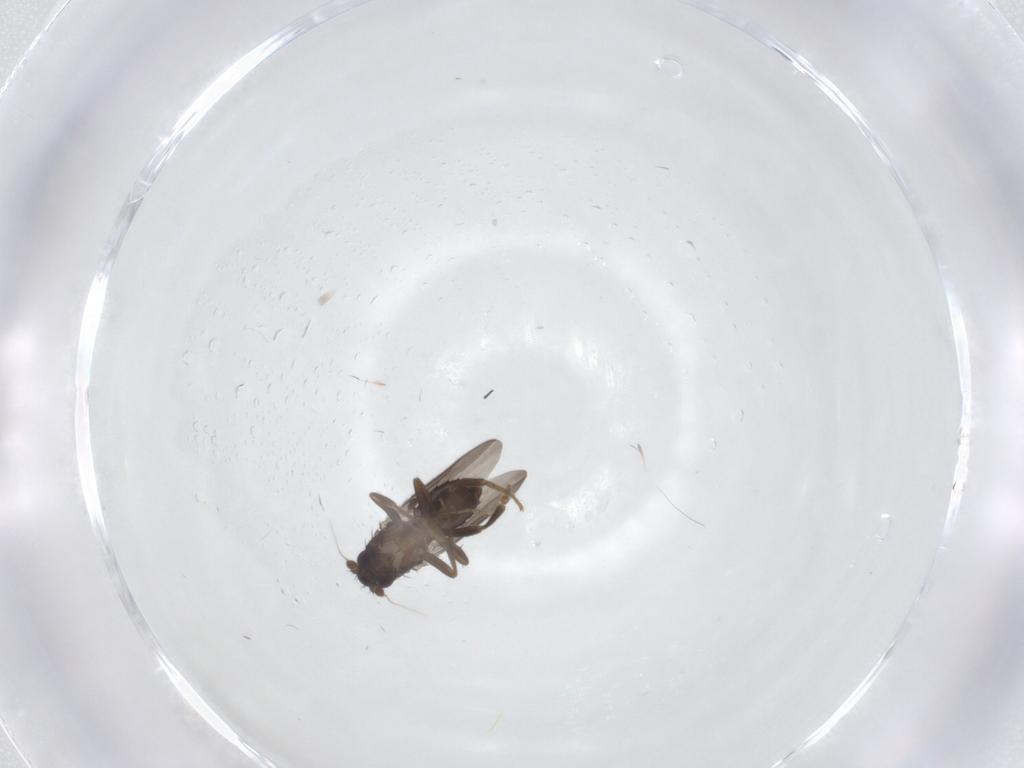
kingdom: Animalia
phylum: Arthropoda
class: Insecta
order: Diptera
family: Sphaeroceridae
